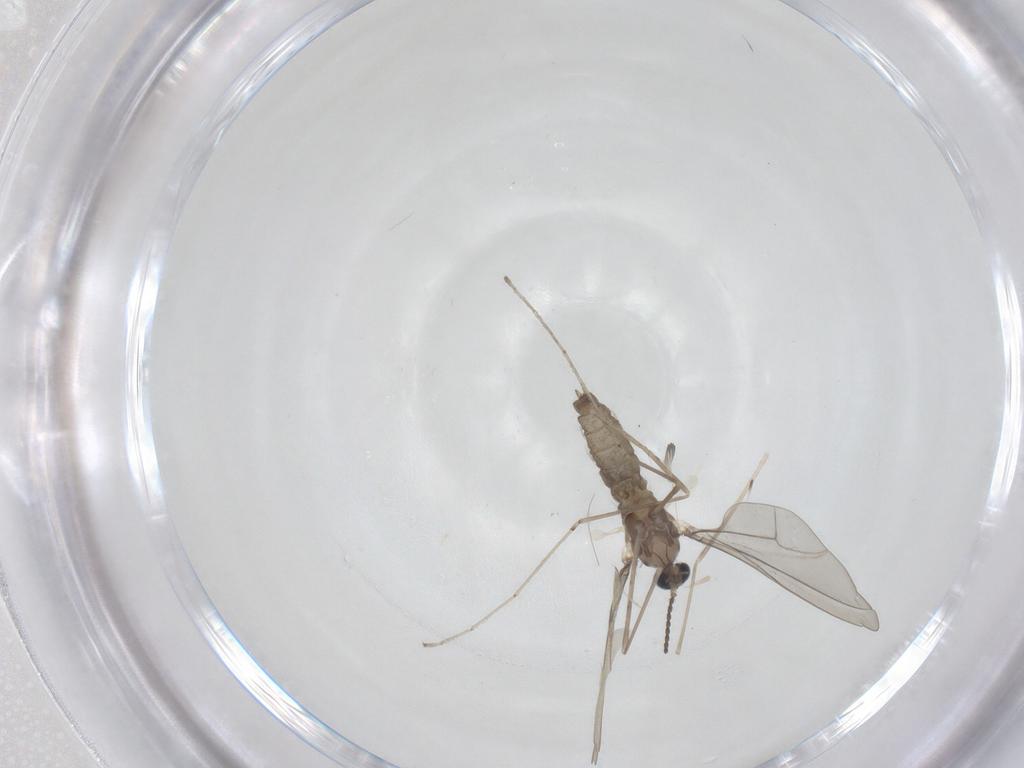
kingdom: Animalia
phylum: Arthropoda
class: Insecta
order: Diptera
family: Cecidomyiidae
